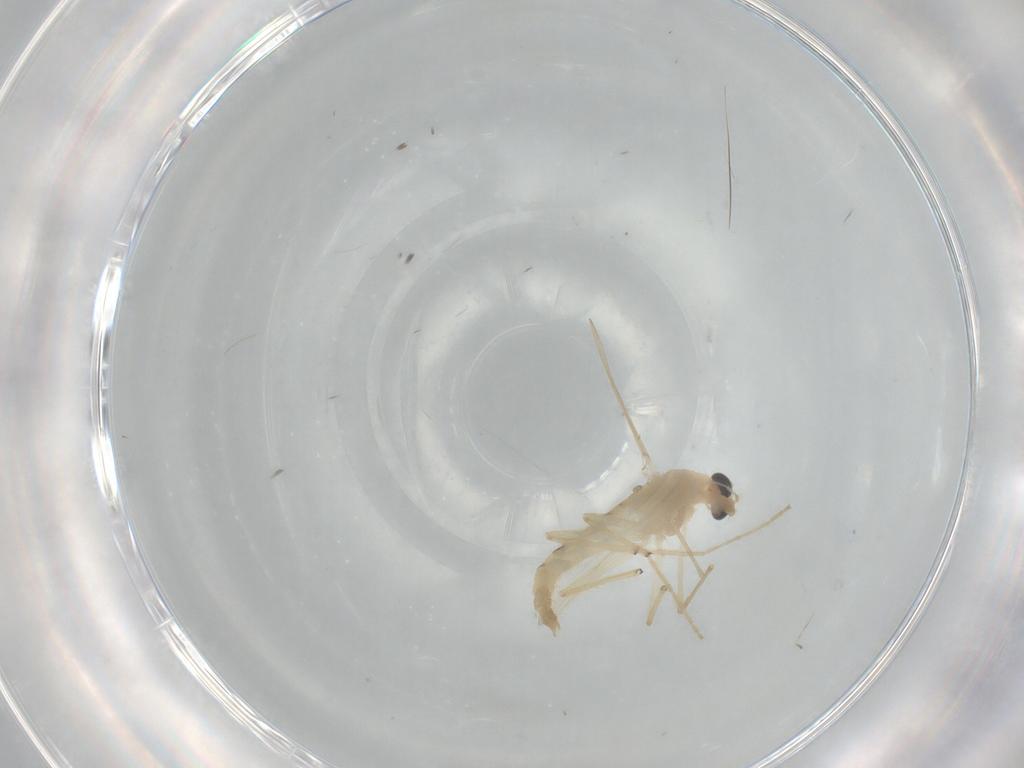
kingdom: Animalia
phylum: Arthropoda
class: Insecta
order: Diptera
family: Chironomidae
